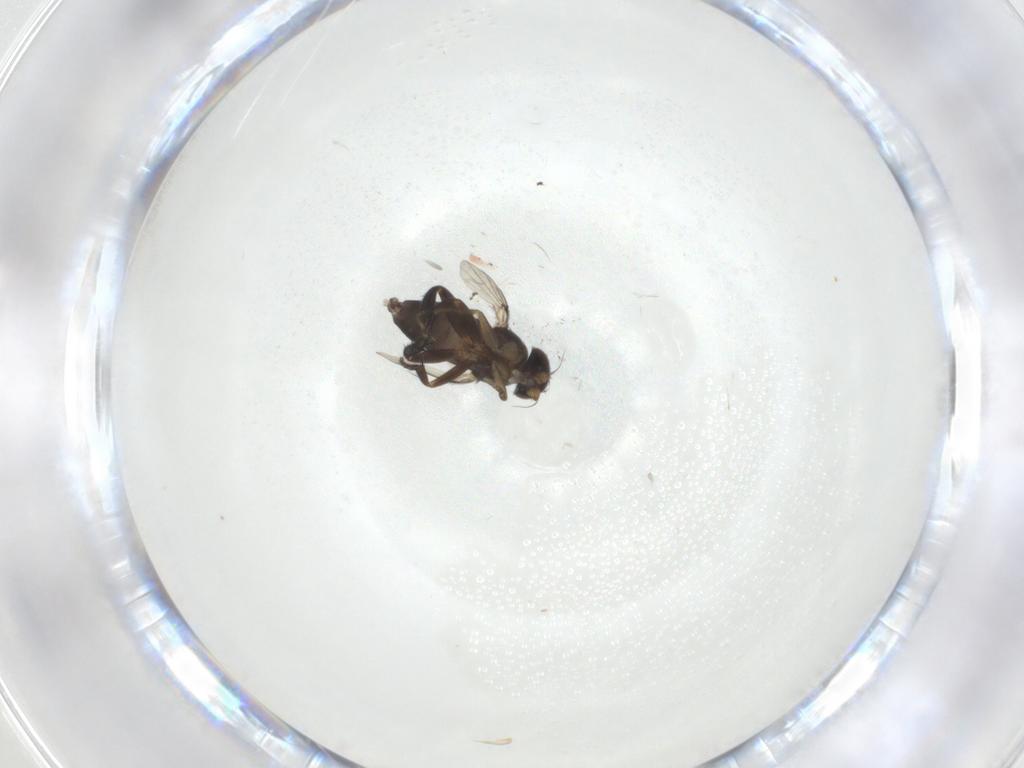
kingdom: Animalia
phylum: Arthropoda
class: Insecta
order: Diptera
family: Phoridae
